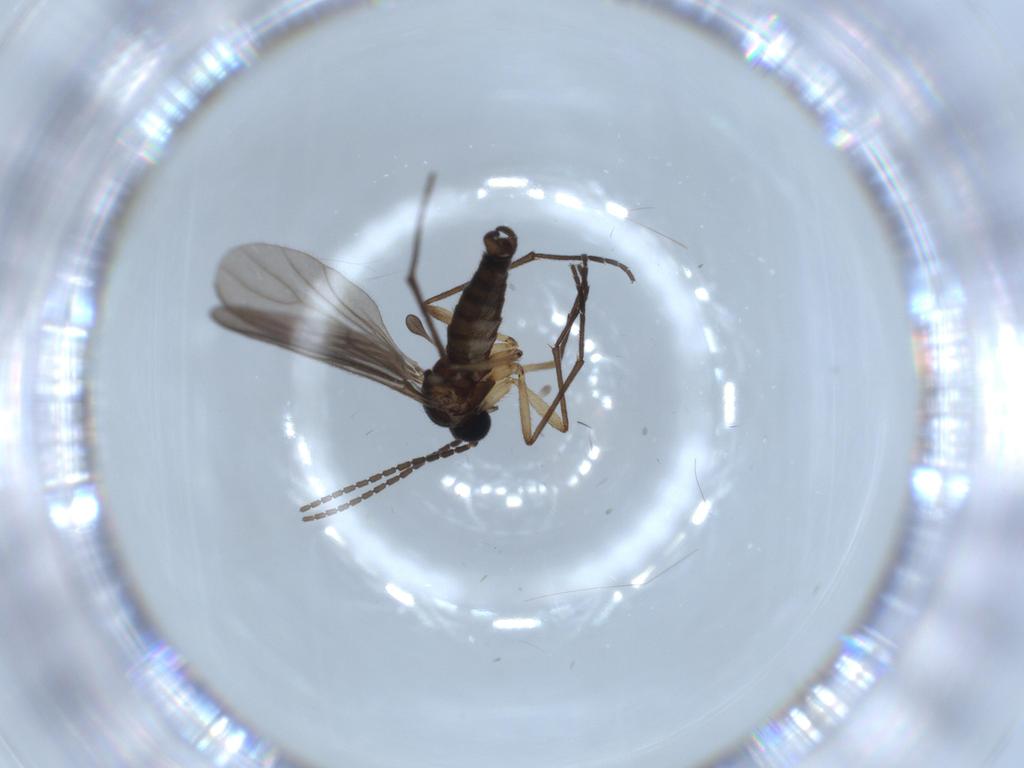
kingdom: Animalia
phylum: Arthropoda
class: Insecta
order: Diptera
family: Sciaridae
